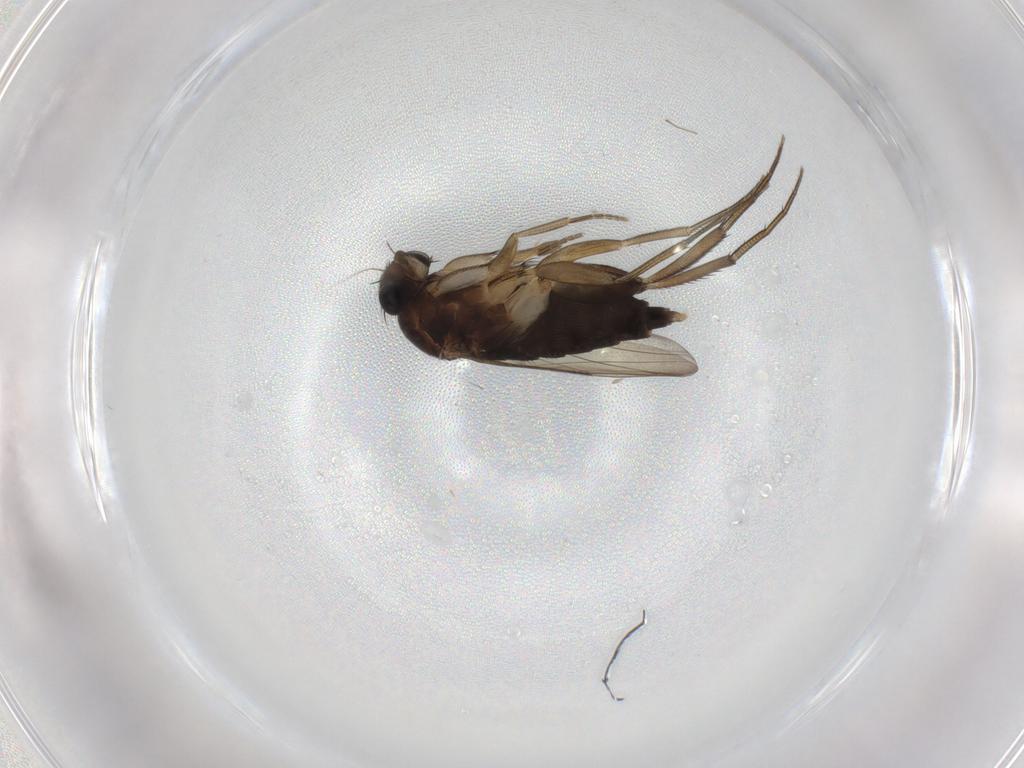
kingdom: Animalia
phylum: Arthropoda
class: Insecta
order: Diptera
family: Phoridae
